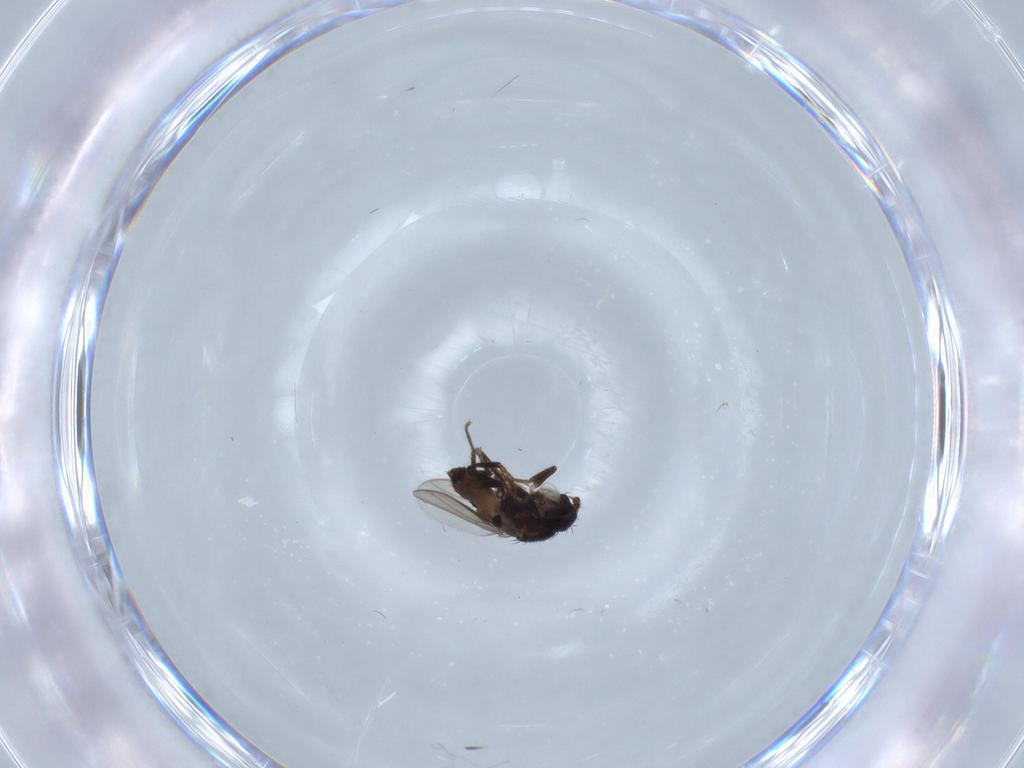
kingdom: Animalia
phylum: Arthropoda
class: Insecta
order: Diptera
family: Sphaeroceridae
